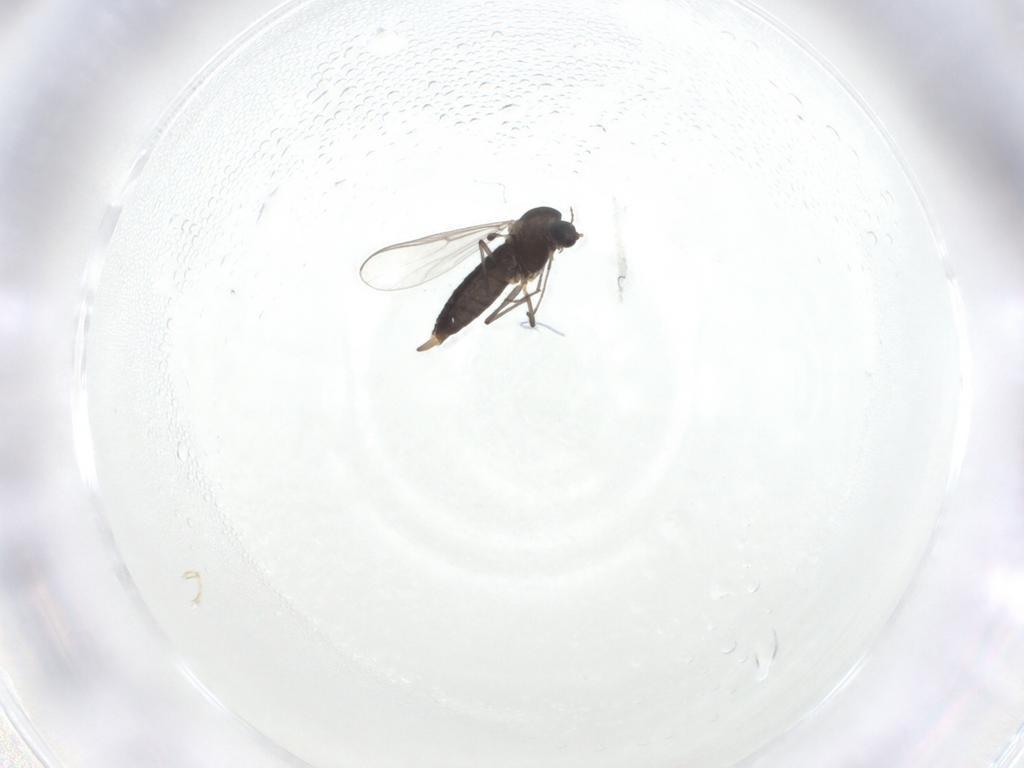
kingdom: Animalia
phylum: Arthropoda
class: Insecta
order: Diptera
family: Chironomidae
